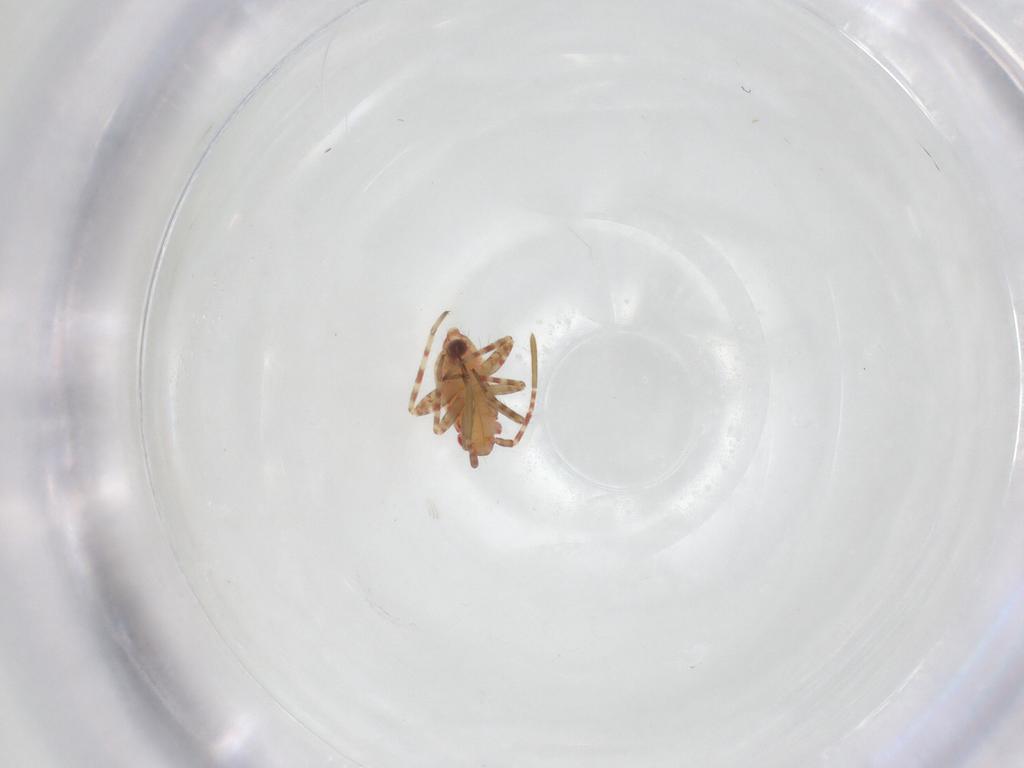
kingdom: Animalia
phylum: Arthropoda
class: Insecta
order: Hemiptera
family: Miridae
